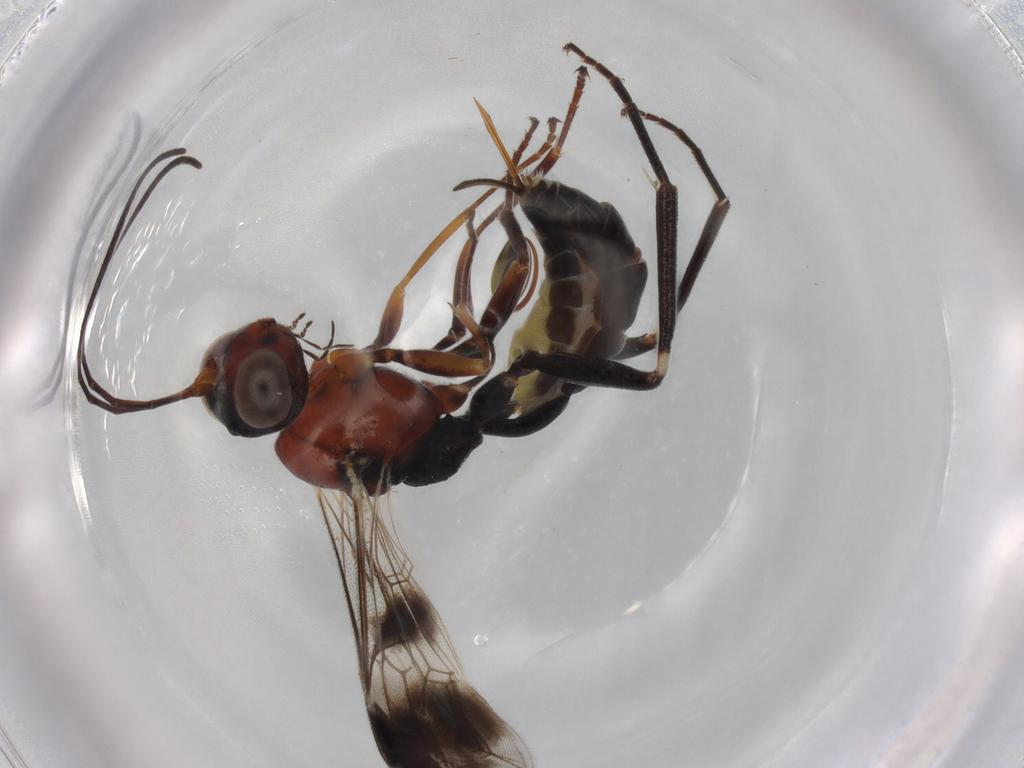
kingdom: Animalia
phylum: Arthropoda
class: Insecta
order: Hymenoptera
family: Ichneumonidae
